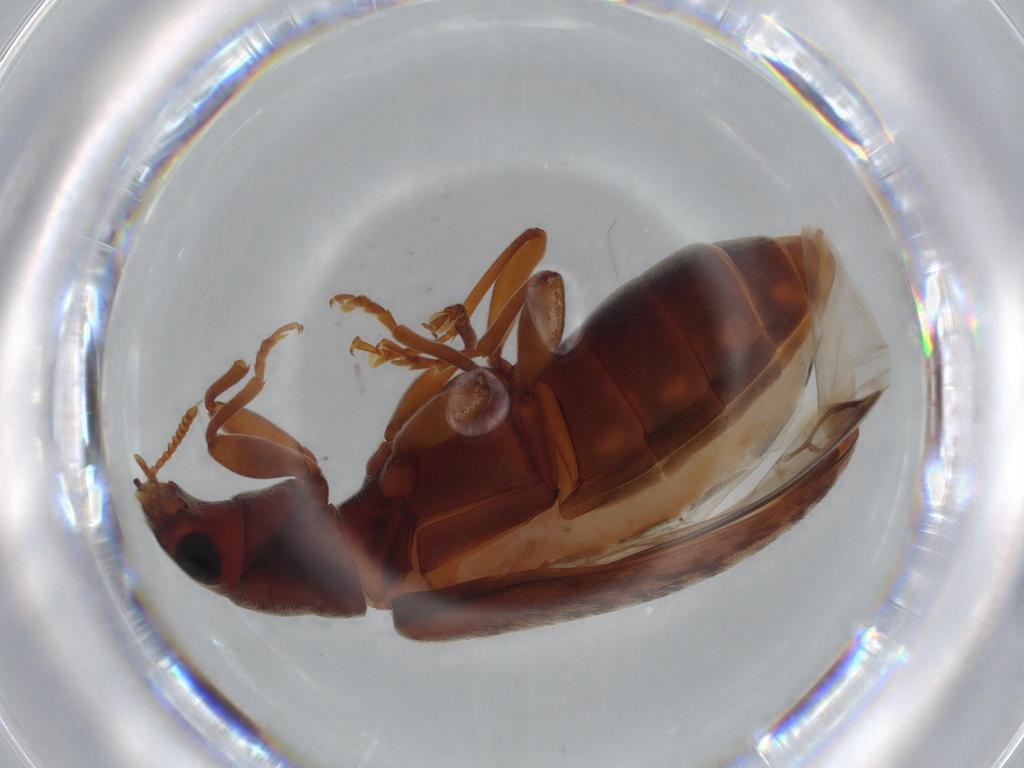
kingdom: Animalia
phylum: Arthropoda
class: Insecta
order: Coleoptera
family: Mycteridae
